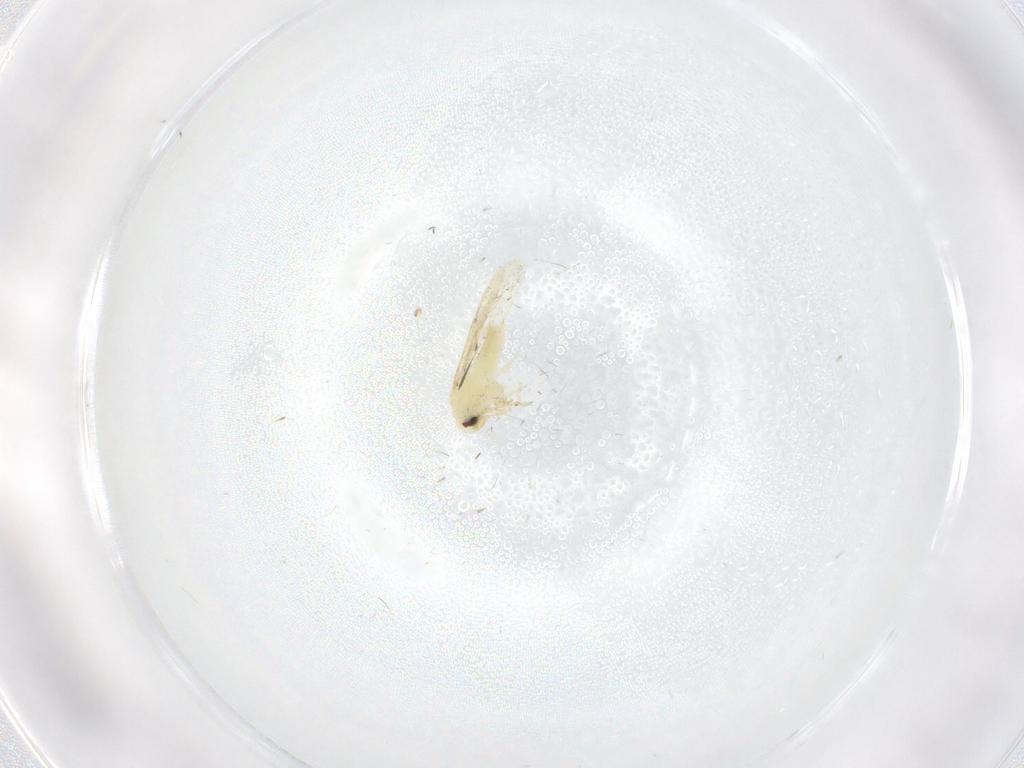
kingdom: Animalia
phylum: Arthropoda
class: Insecta
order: Hemiptera
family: Aleyrodidae
